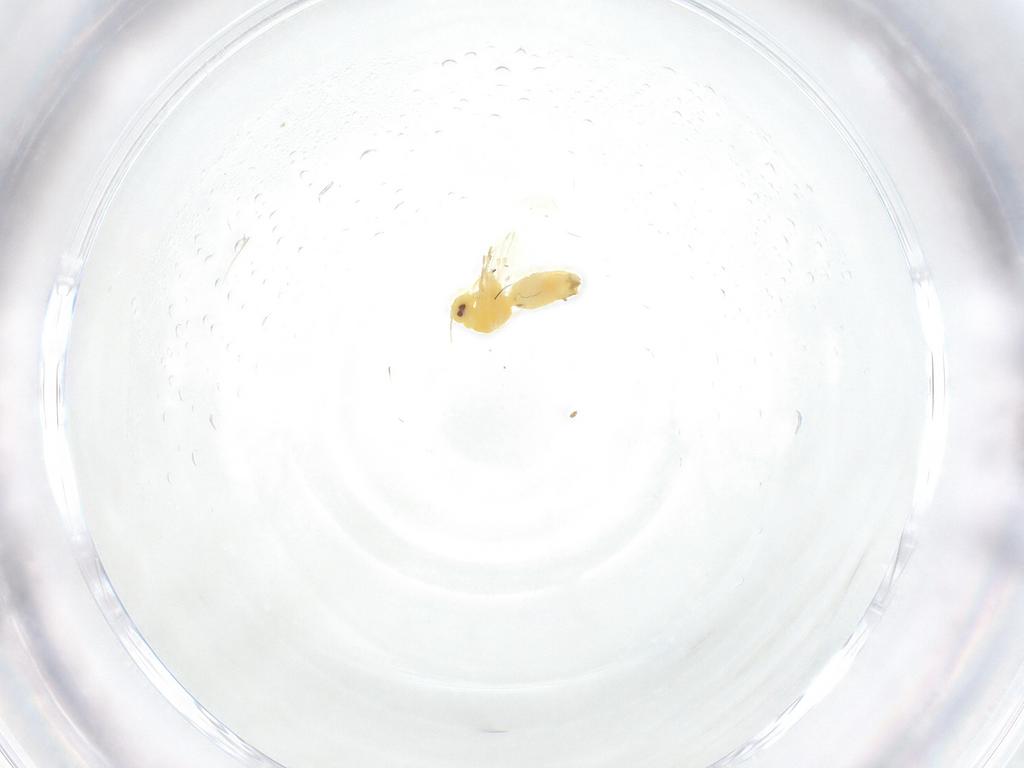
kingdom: Animalia
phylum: Arthropoda
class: Insecta
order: Hemiptera
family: Aleyrodidae
